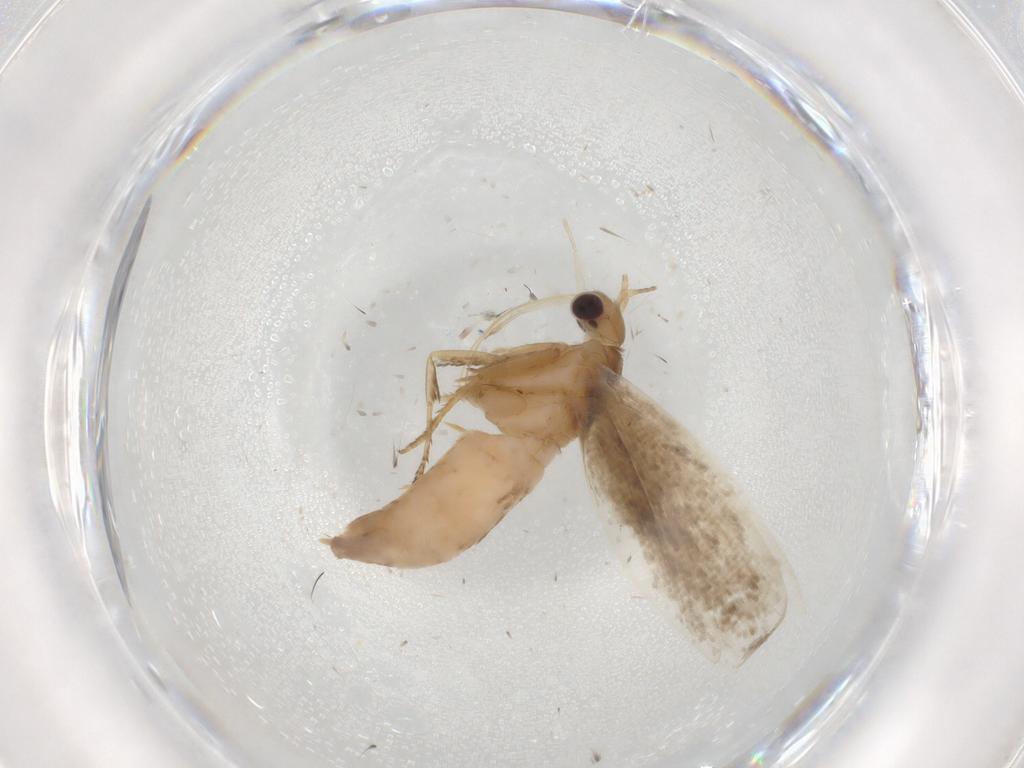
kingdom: Animalia
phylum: Arthropoda
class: Insecta
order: Lepidoptera
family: Plutellidae
